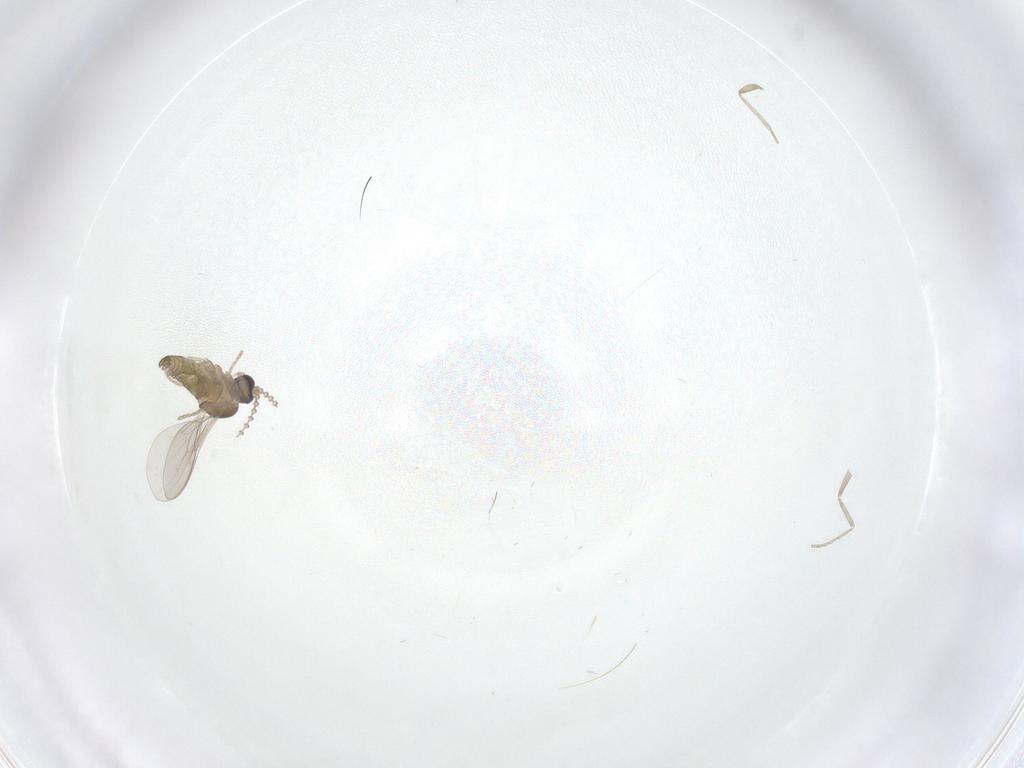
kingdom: Animalia
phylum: Arthropoda
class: Insecta
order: Diptera
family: Cecidomyiidae
